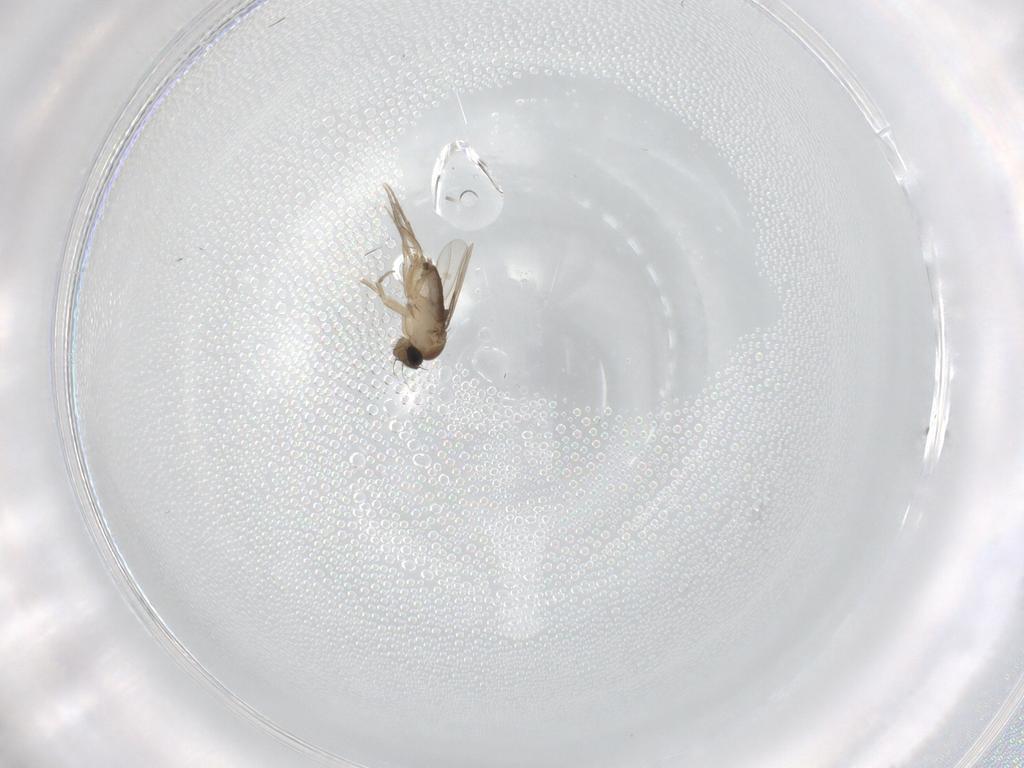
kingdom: Animalia
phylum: Arthropoda
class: Insecta
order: Diptera
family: Phoridae
